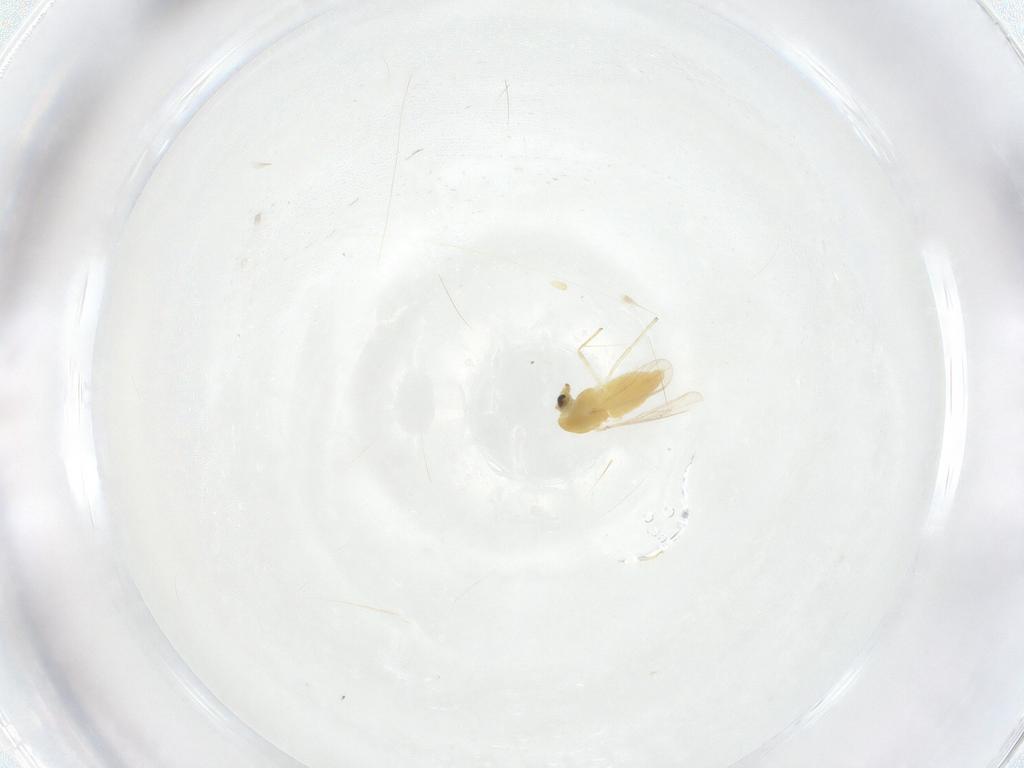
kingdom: Animalia
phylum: Arthropoda
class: Insecta
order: Diptera
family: Chironomidae
